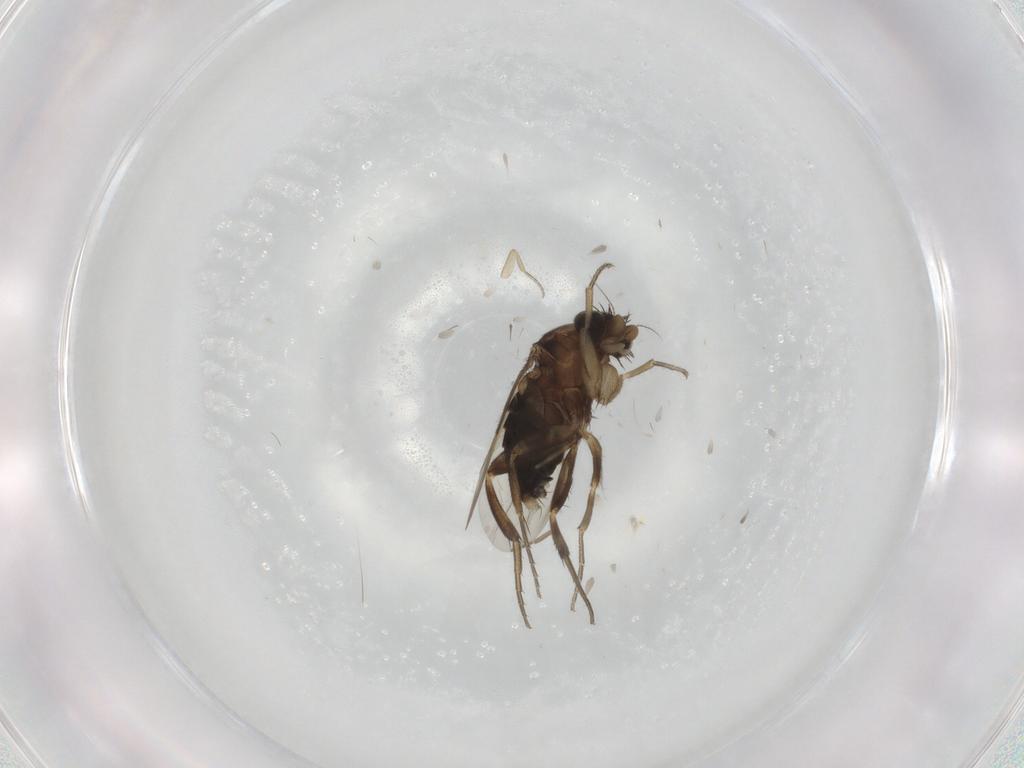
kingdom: Animalia
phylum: Arthropoda
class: Insecta
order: Diptera
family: Phoridae
